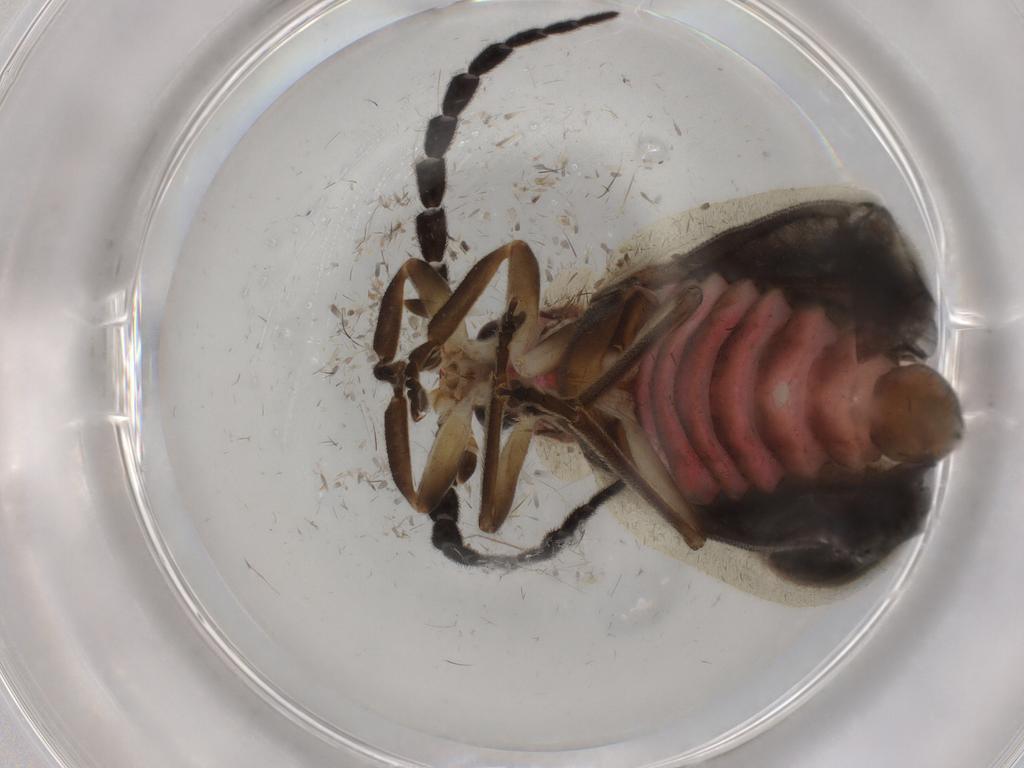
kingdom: Animalia
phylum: Arthropoda
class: Insecta
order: Coleoptera
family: Lampyridae
